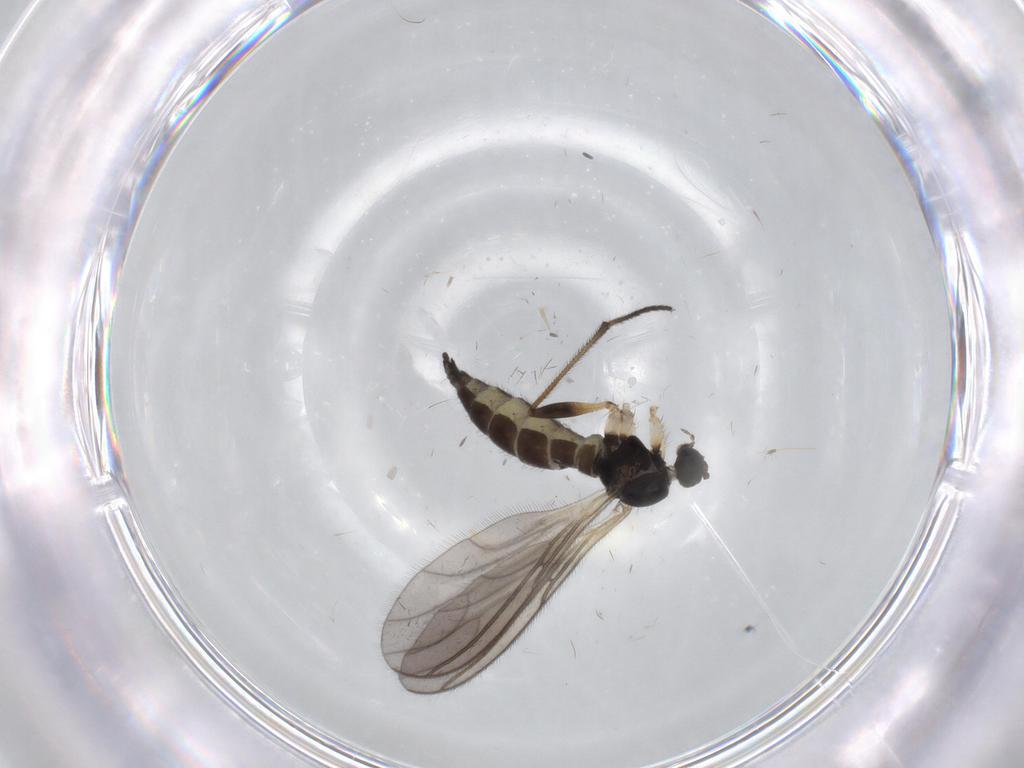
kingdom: Animalia
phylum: Arthropoda
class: Insecta
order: Diptera
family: Sciaridae
